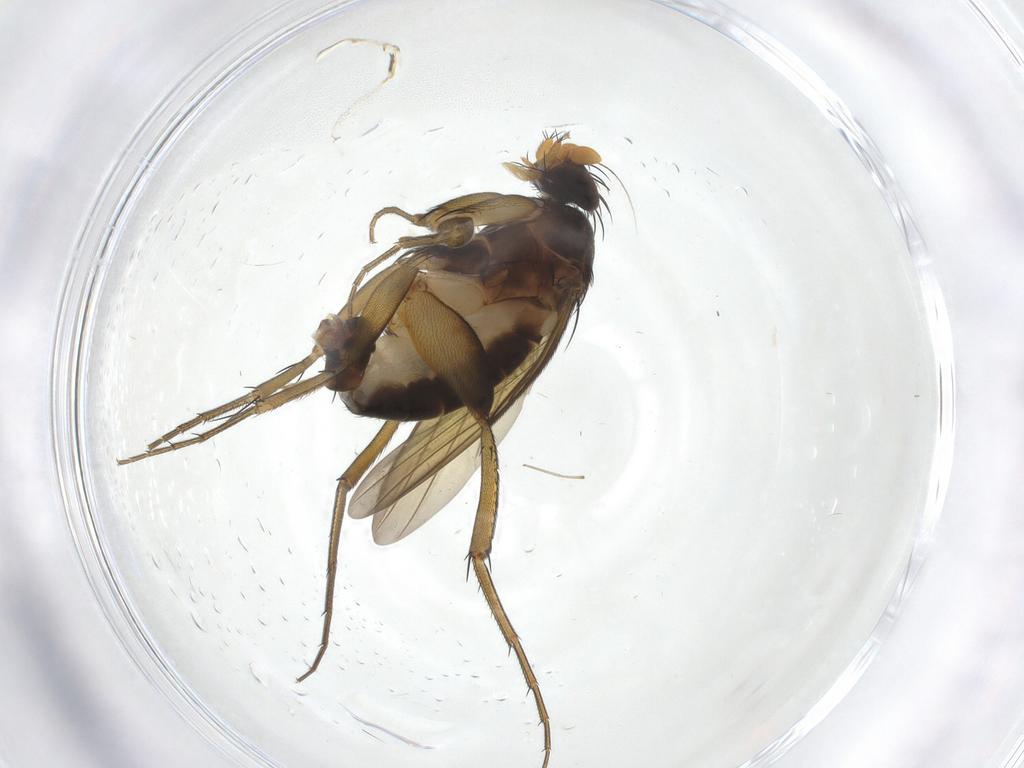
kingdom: Animalia
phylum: Arthropoda
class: Insecta
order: Diptera
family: Phoridae
